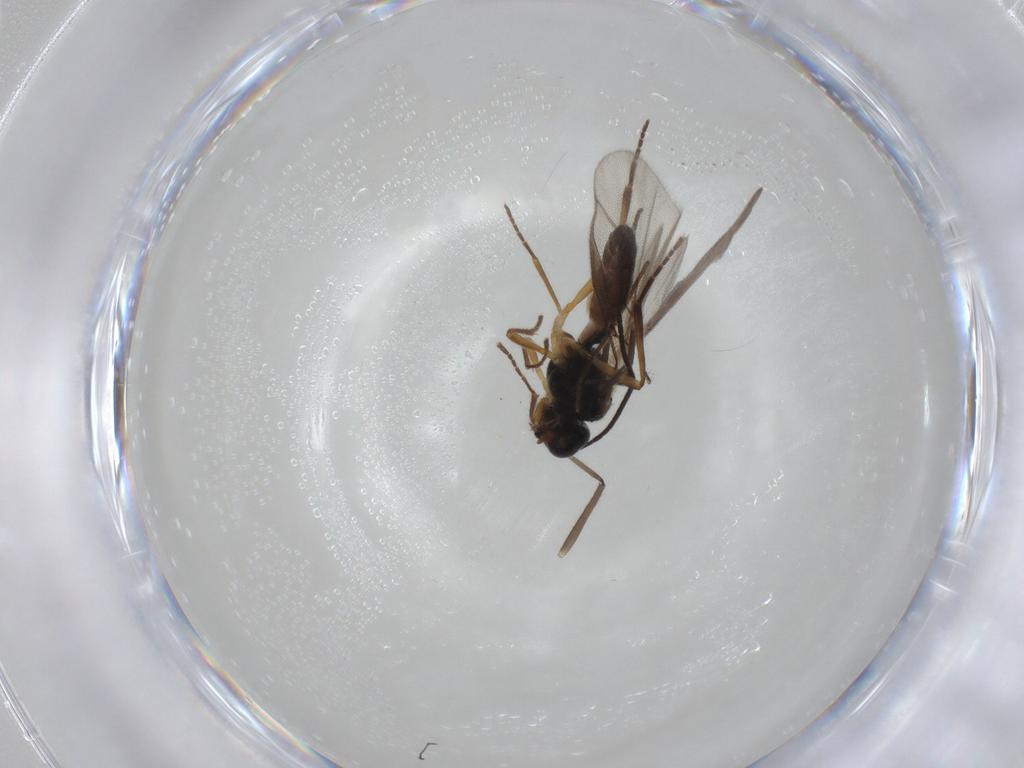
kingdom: Animalia
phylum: Arthropoda
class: Insecta
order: Hymenoptera
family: Braconidae
